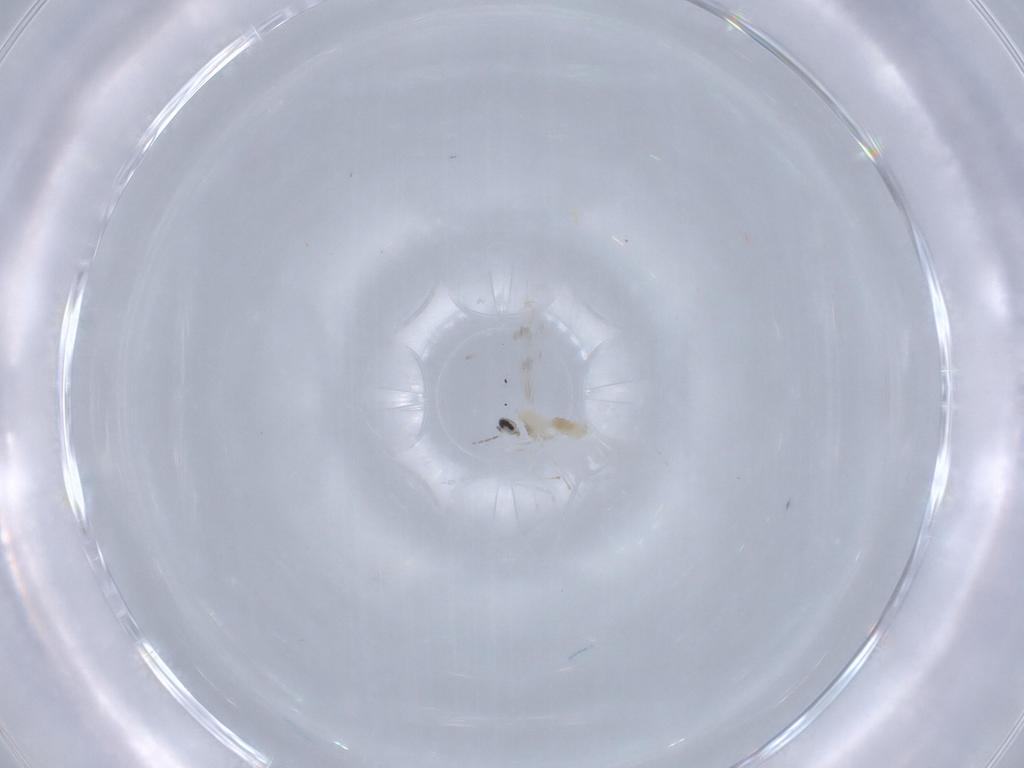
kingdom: Animalia
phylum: Arthropoda
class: Insecta
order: Diptera
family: Cecidomyiidae
